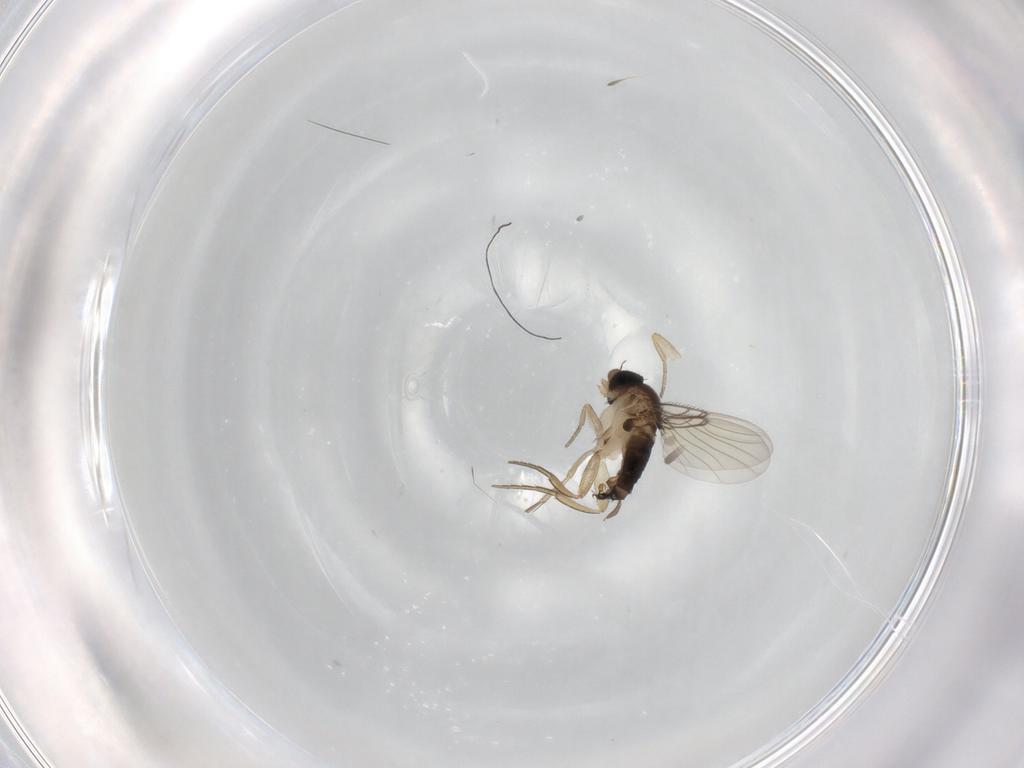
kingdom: Animalia
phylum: Arthropoda
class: Insecta
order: Diptera
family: Phoridae
